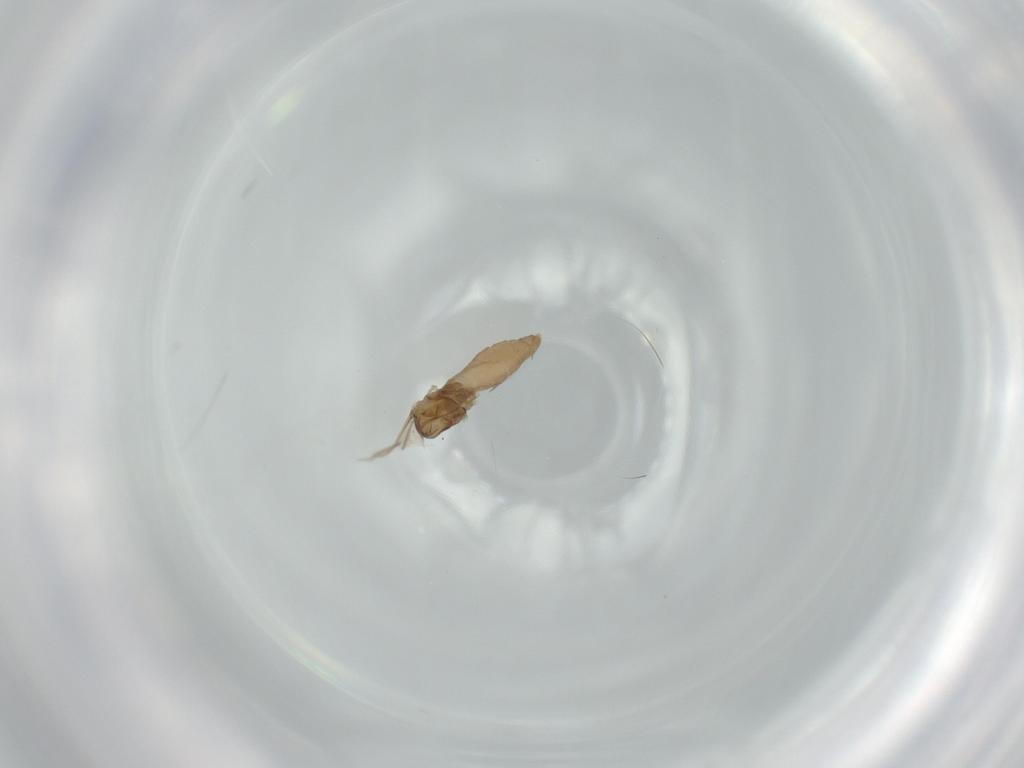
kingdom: Animalia
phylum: Arthropoda
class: Insecta
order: Diptera
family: Cecidomyiidae
